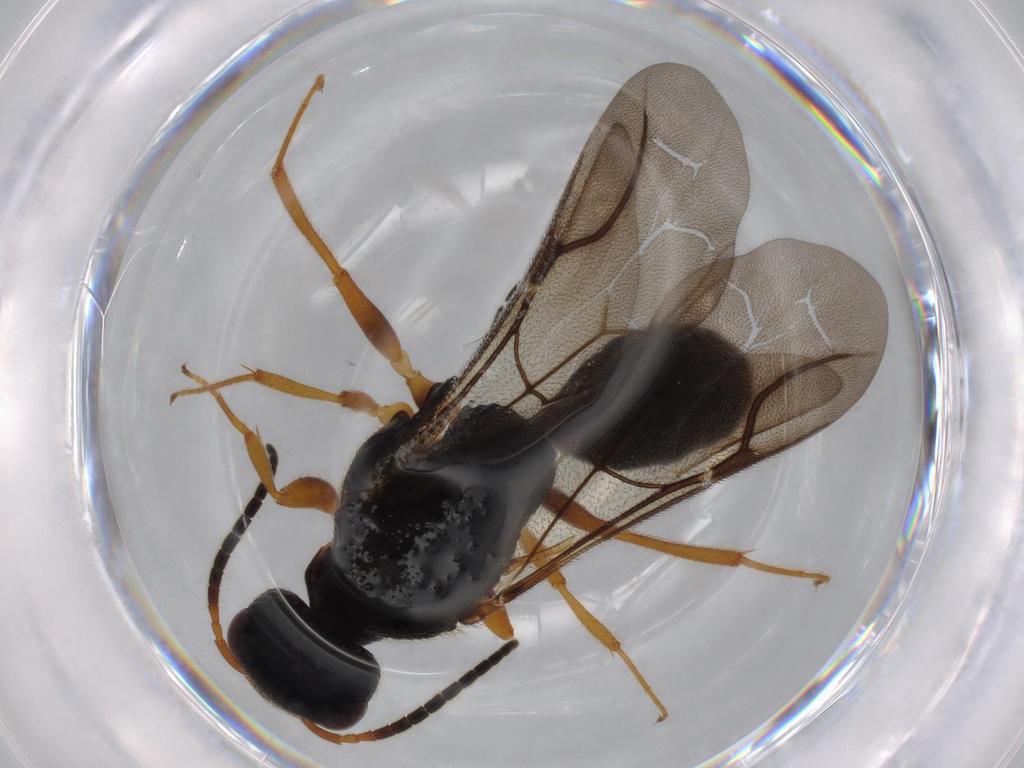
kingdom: Animalia
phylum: Arthropoda
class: Insecta
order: Hymenoptera
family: Bethylidae
